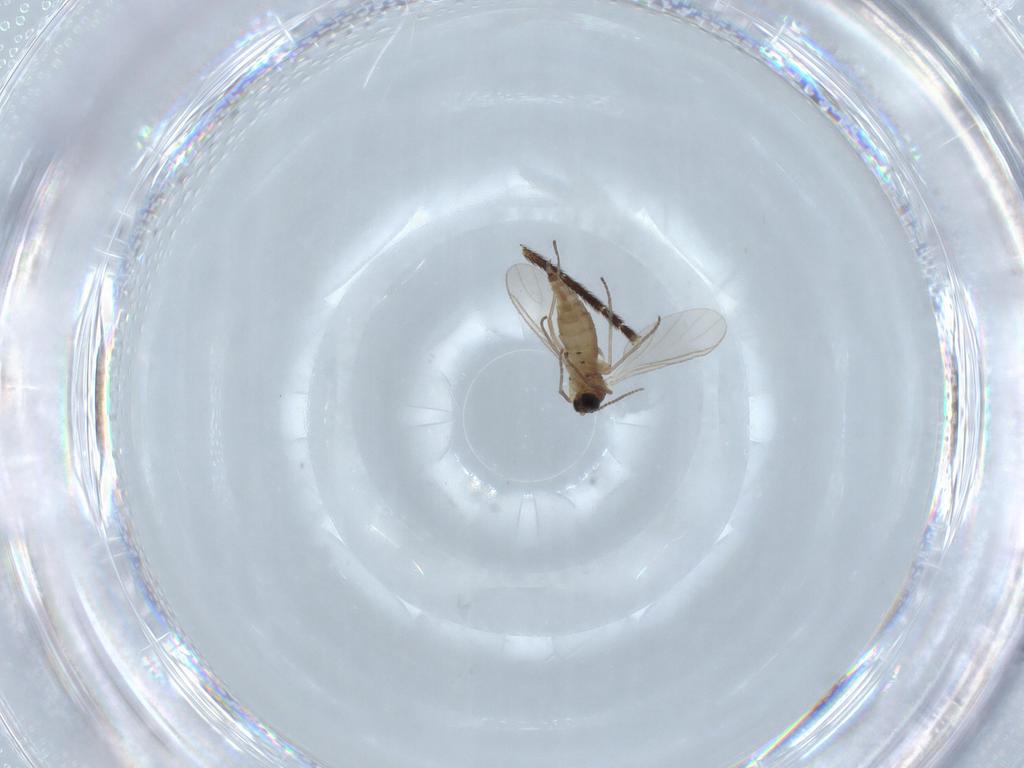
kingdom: Animalia
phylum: Arthropoda
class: Insecta
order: Diptera
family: Sciaridae
